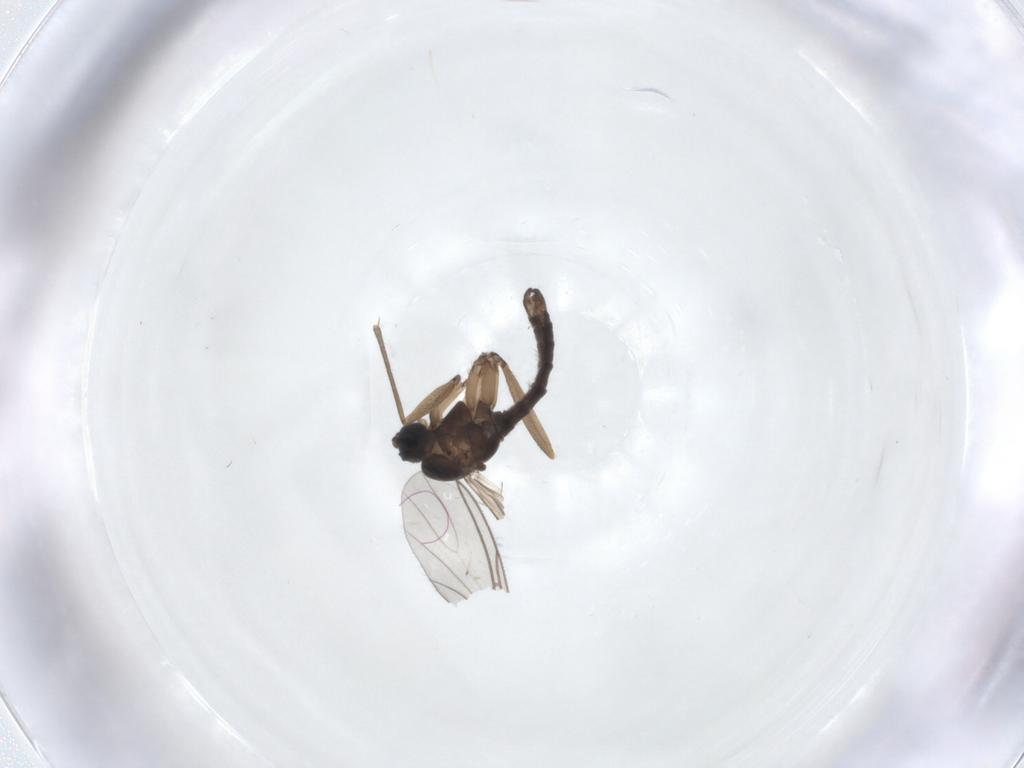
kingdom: Animalia
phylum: Arthropoda
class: Insecta
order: Diptera
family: Sciaridae
